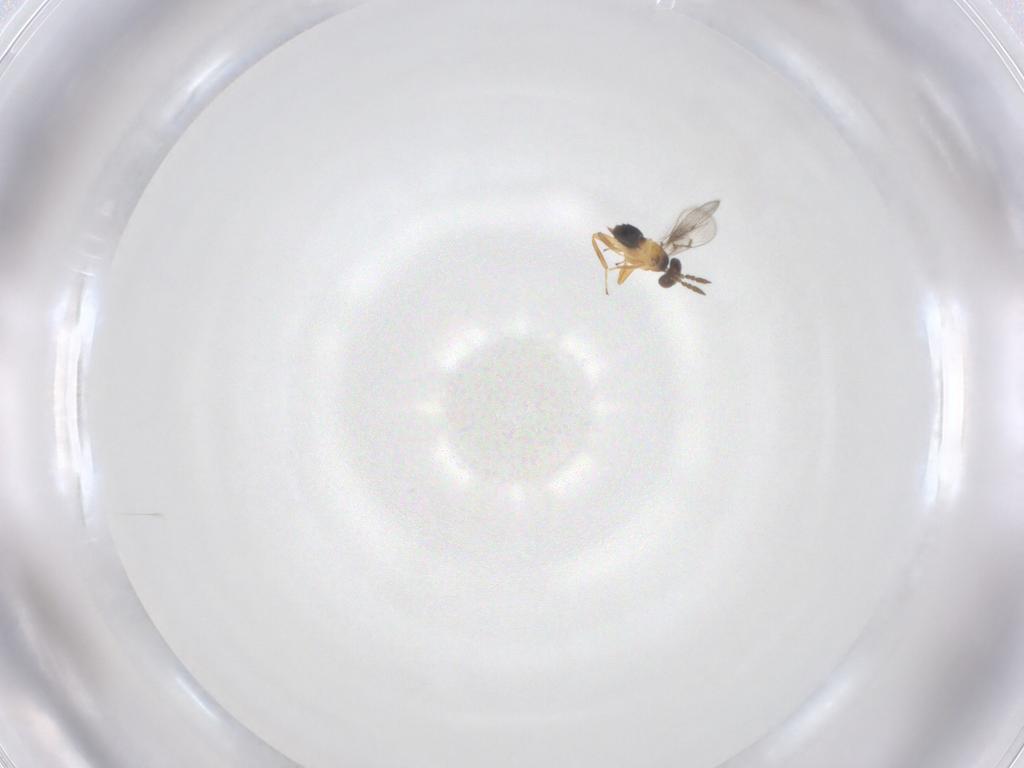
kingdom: Animalia
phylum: Arthropoda
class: Insecta
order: Hymenoptera
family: Trichogrammatidae
